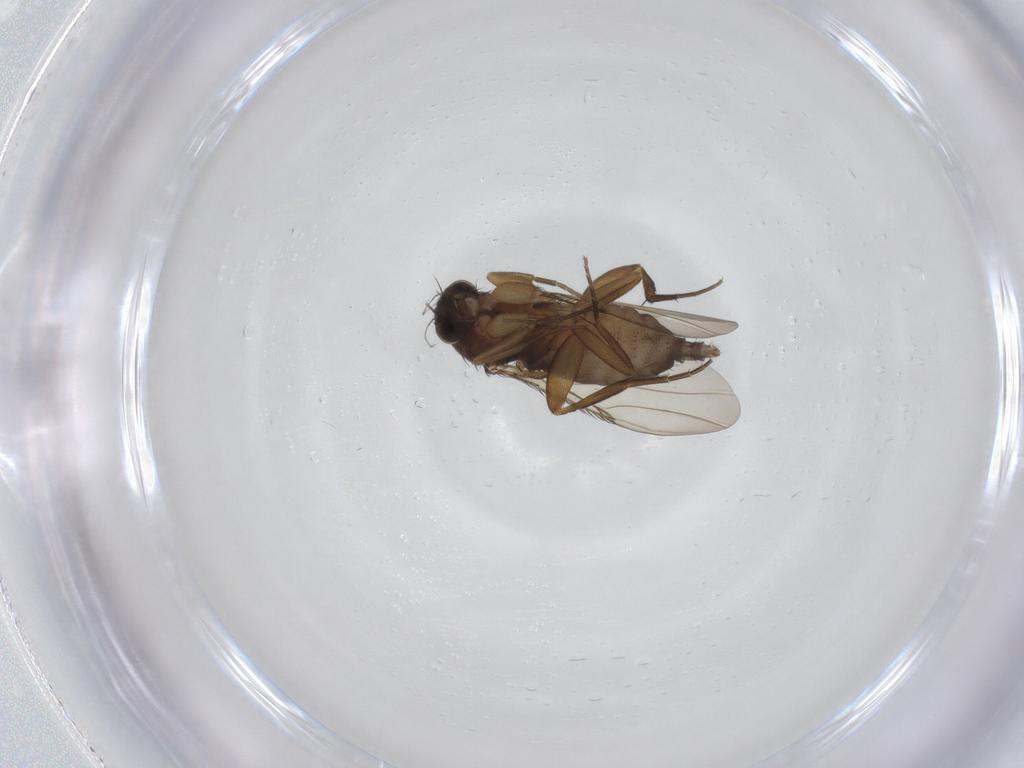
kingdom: Animalia
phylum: Arthropoda
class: Insecta
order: Diptera
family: Phoridae
